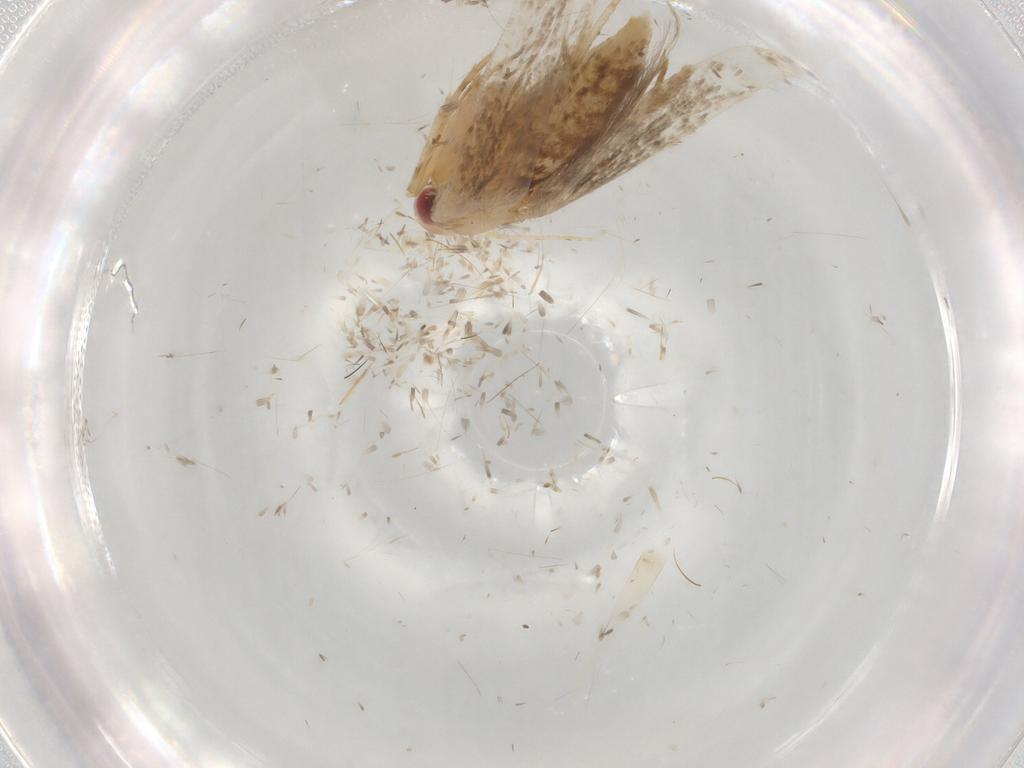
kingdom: Animalia
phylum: Arthropoda
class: Insecta
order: Lepidoptera
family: Cosmopterigidae
